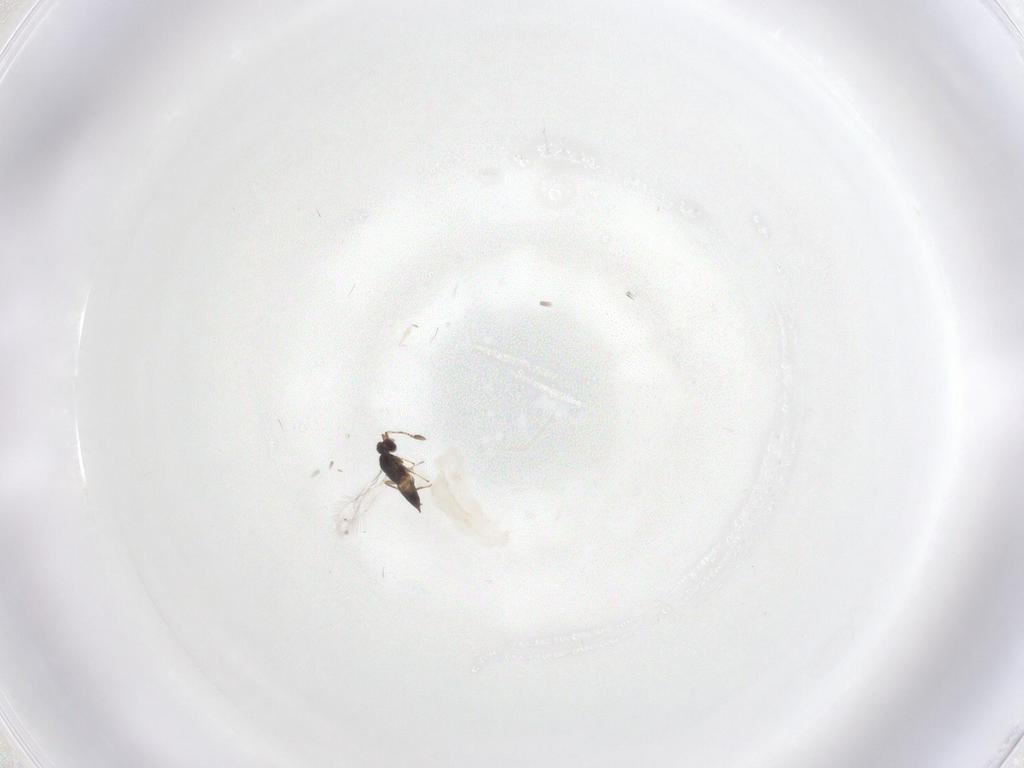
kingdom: Animalia
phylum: Arthropoda
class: Insecta
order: Hymenoptera
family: Mymaridae
